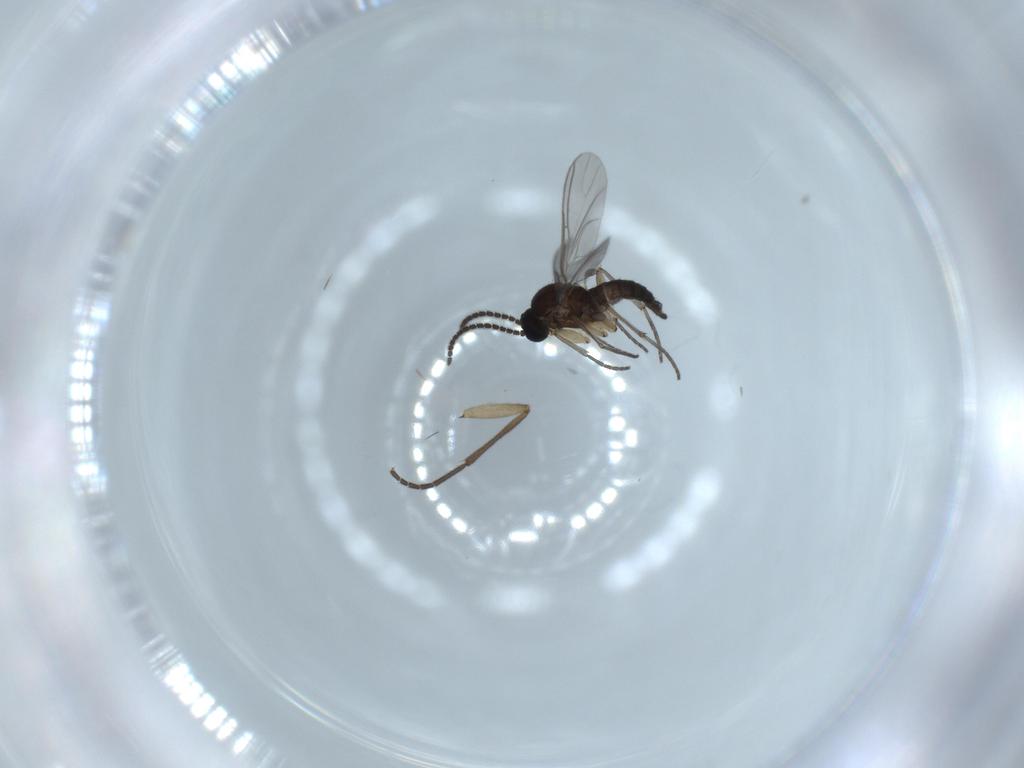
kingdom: Animalia
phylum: Arthropoda
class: Insecta
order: Diptera
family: Sciaridae
